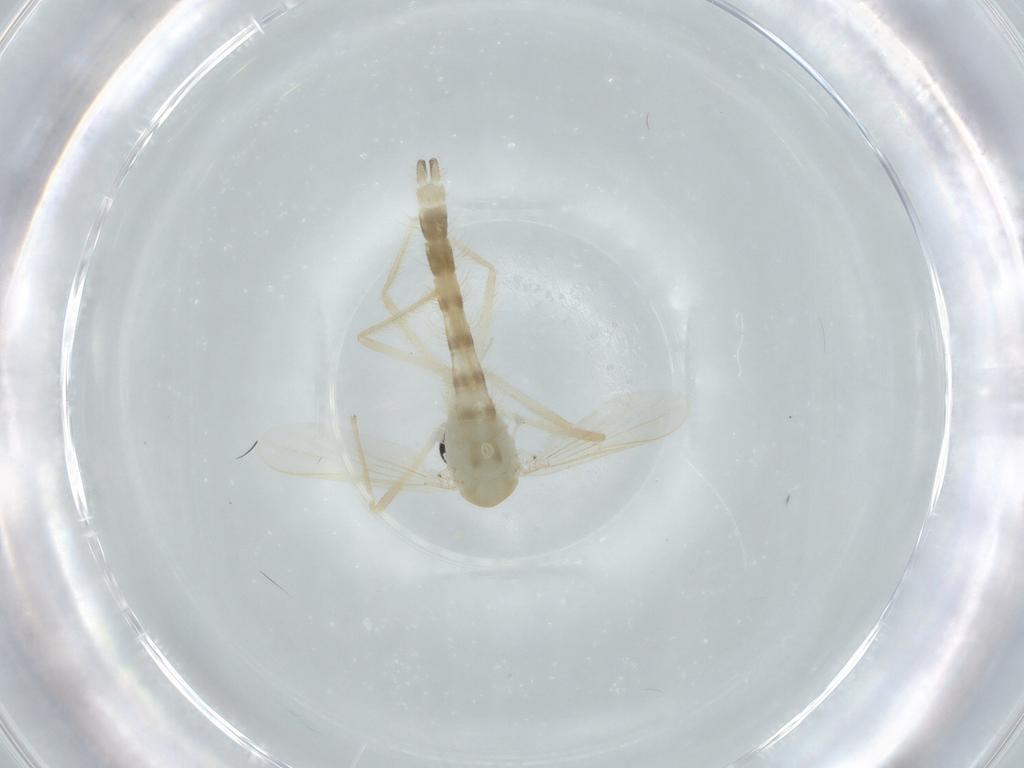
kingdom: Animalia
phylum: Arthropoda
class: Insecta
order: Diptera
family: Chironomidae
